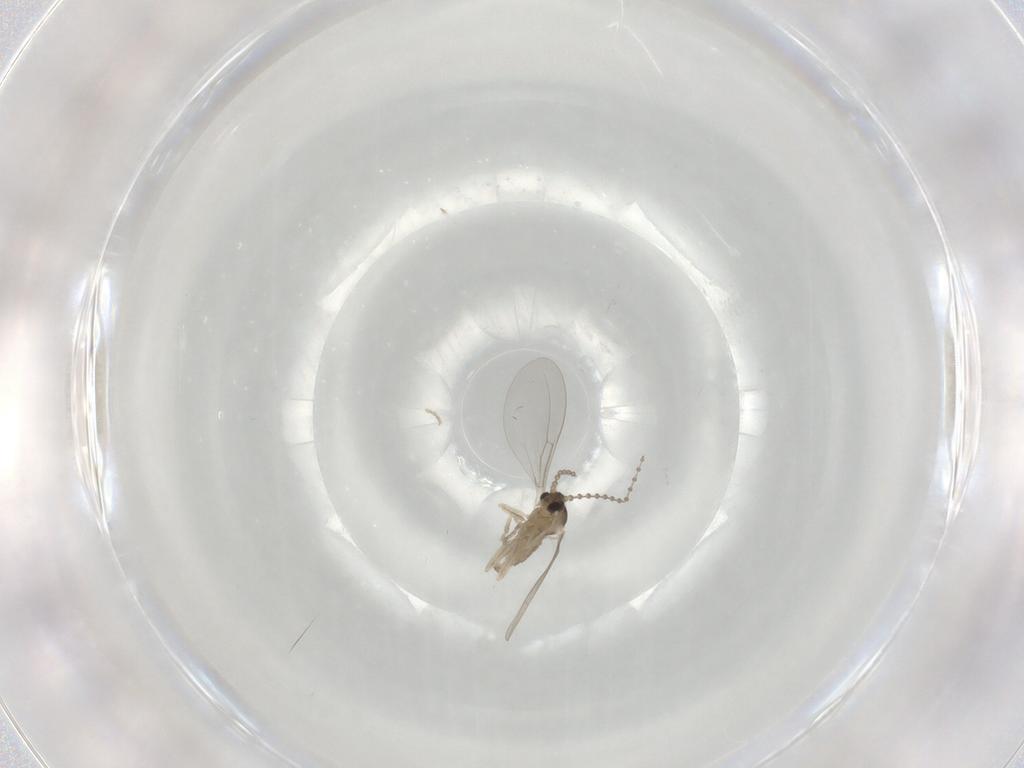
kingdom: Animalia
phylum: Arthropoda
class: Insecta
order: Diptera
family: Cecidomyiidae
